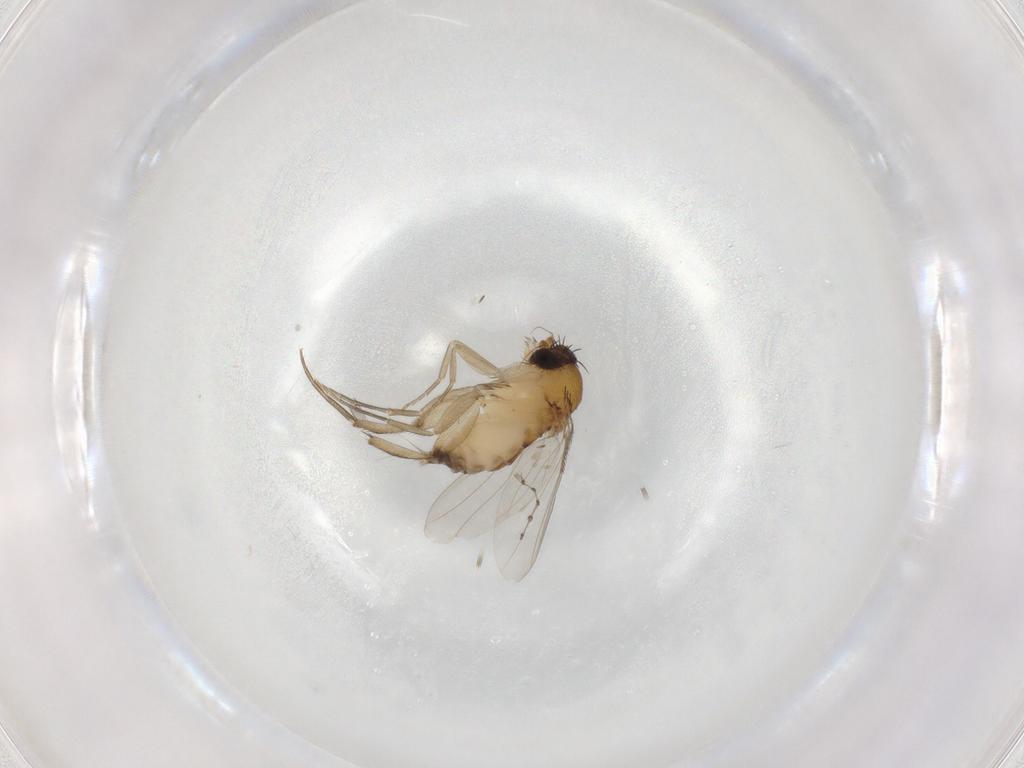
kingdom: Animalia
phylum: Arthropoda
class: Insecta
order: Diptera
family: Phoridae
